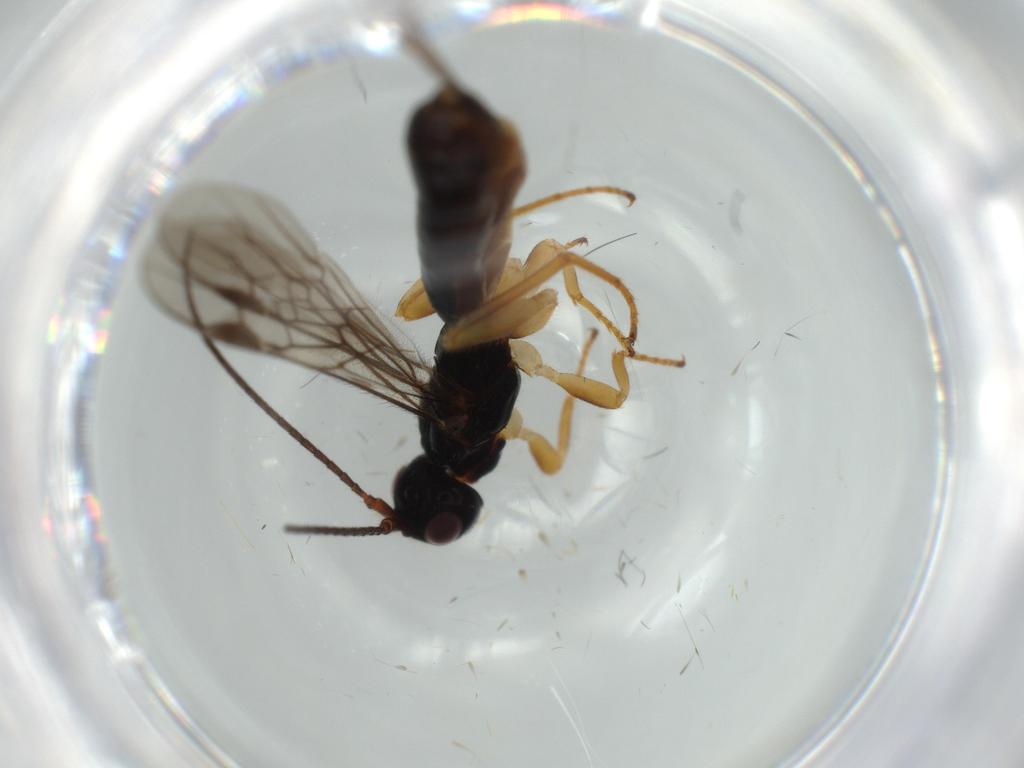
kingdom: Animalia
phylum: Arthropoda
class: Insecta
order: Hymenoptera
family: Braconidae
